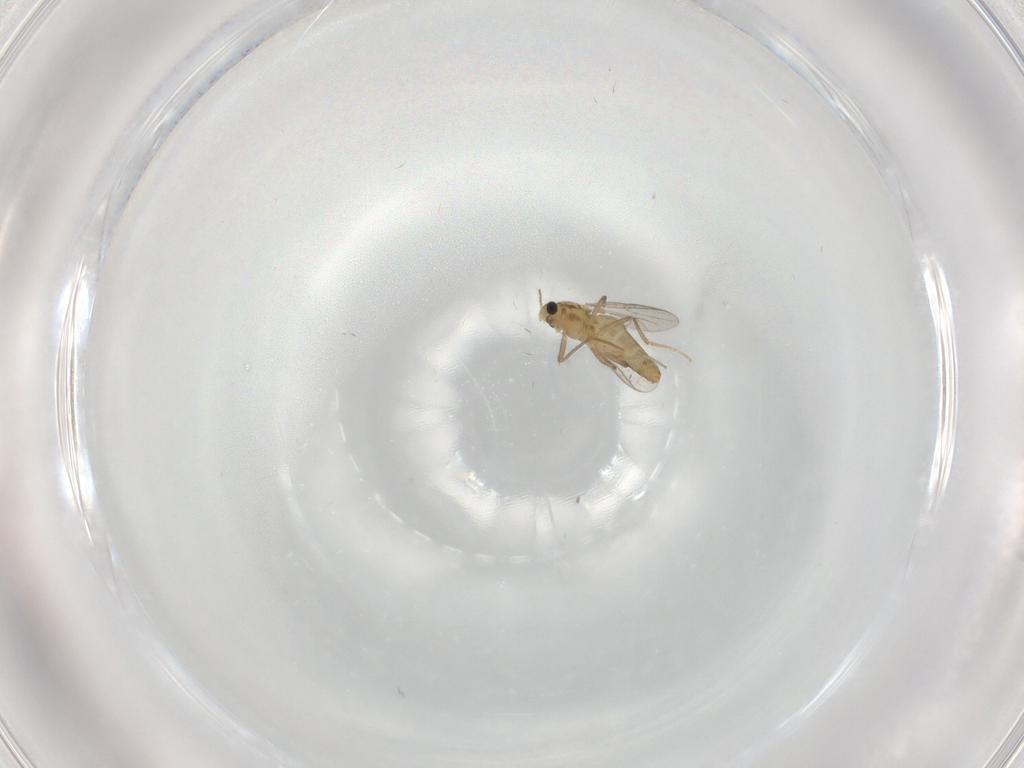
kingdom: Animalia
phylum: Arthropoda
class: Insecta
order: Diptera
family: Chironomidae
